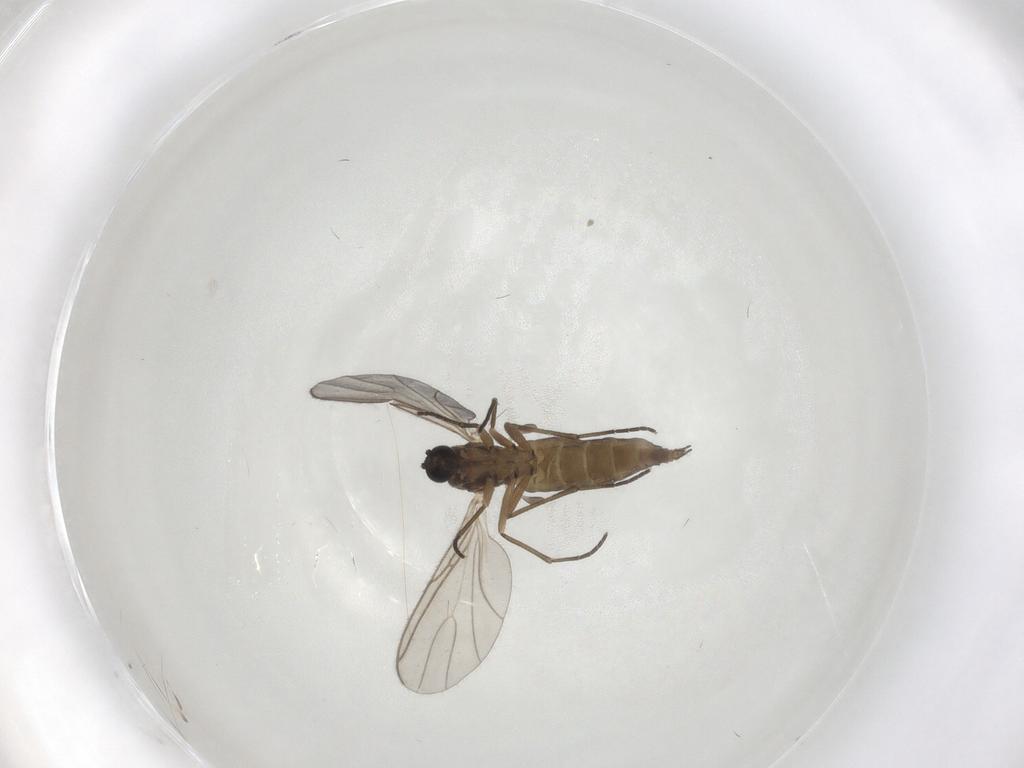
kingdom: Animalia
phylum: Arthropoda
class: Insecta
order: Diptera
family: Sciaridae
